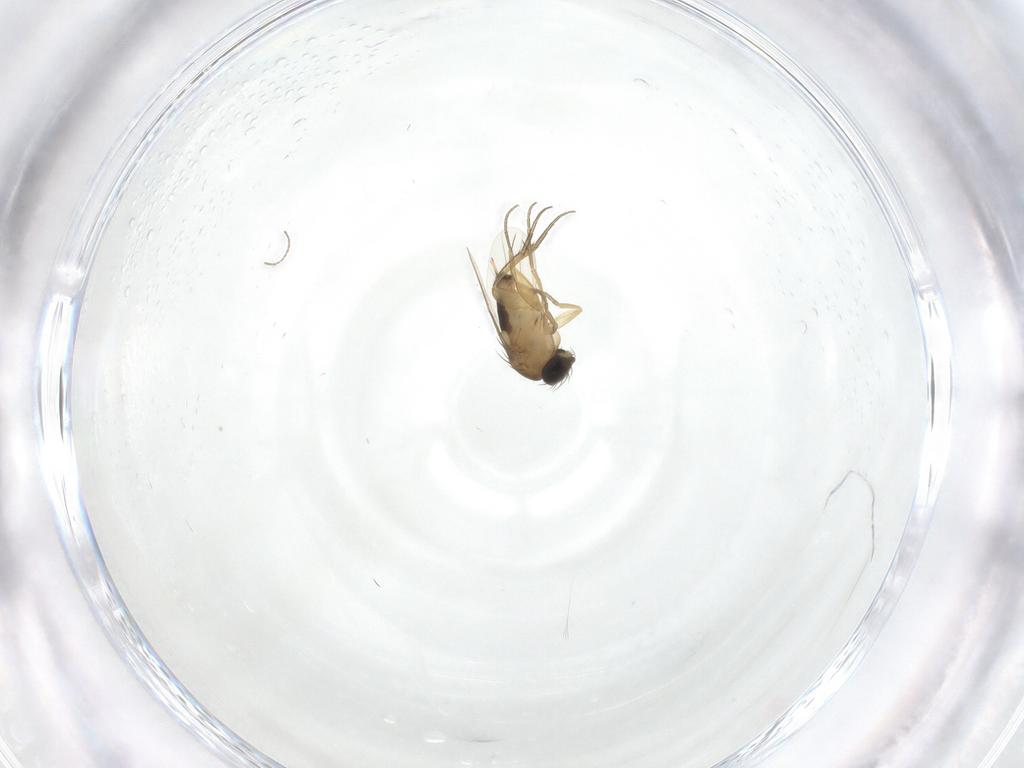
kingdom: Animalia
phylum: Arthropoda
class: Insecta
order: Diptera
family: Phoridae
